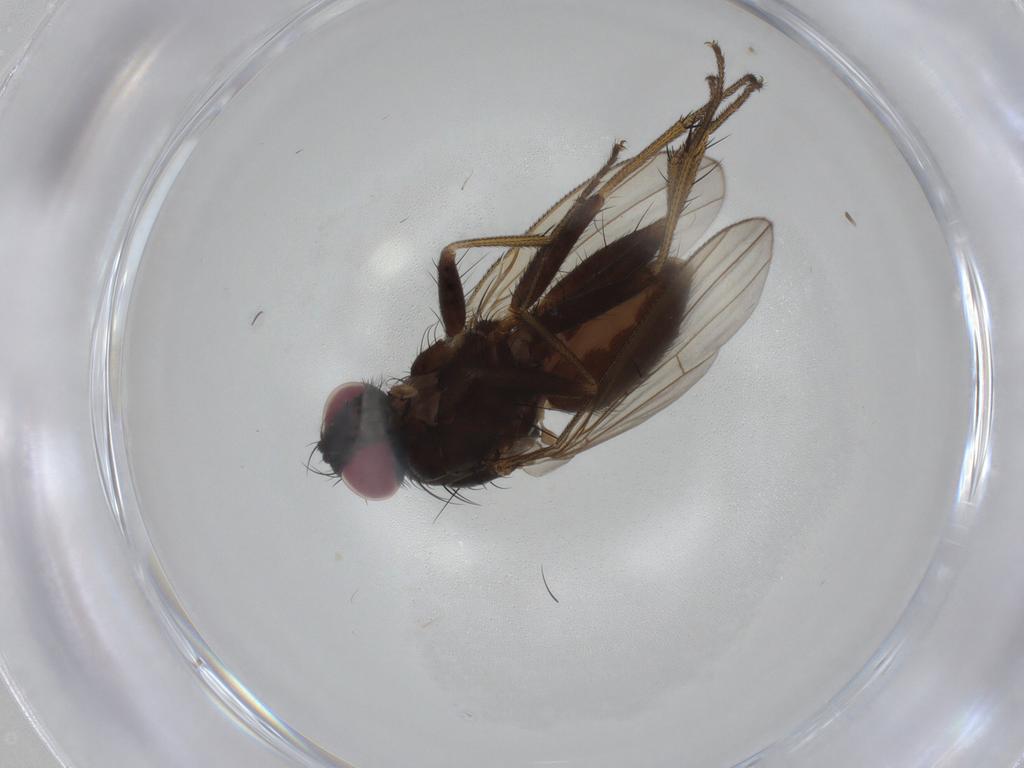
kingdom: Animalia
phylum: Arthropoda
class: Insecta
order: Diptera
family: Muscidae
